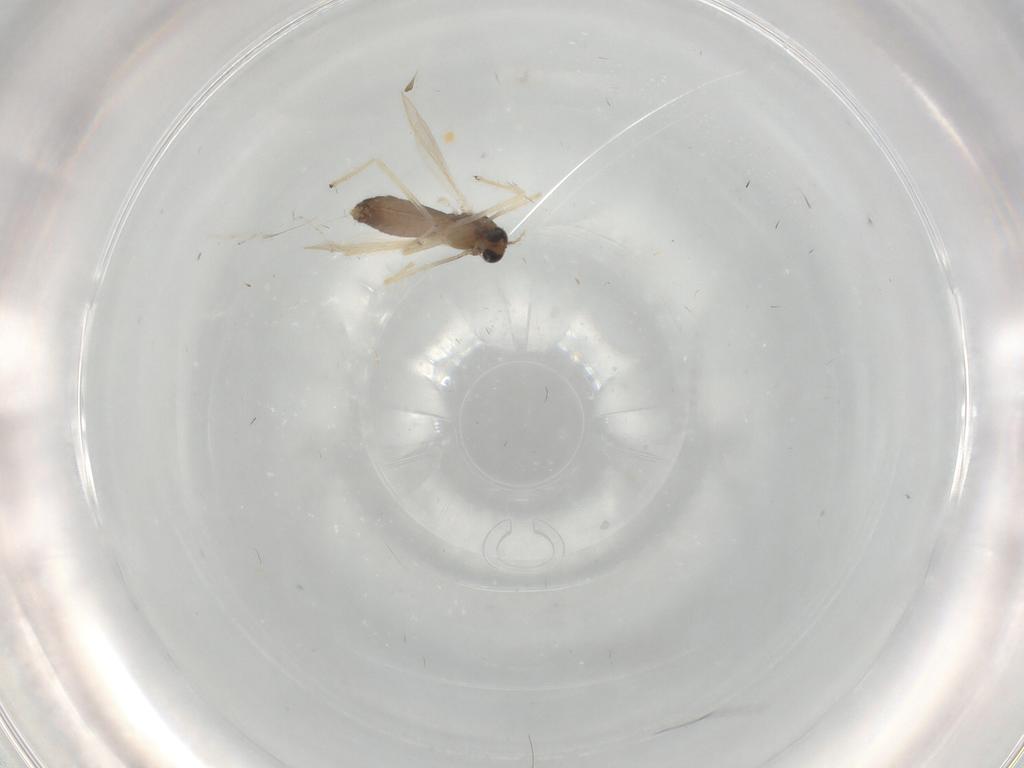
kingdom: Animalia
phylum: Arthropoda
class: Insecta
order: Diptera
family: Chironomidae
